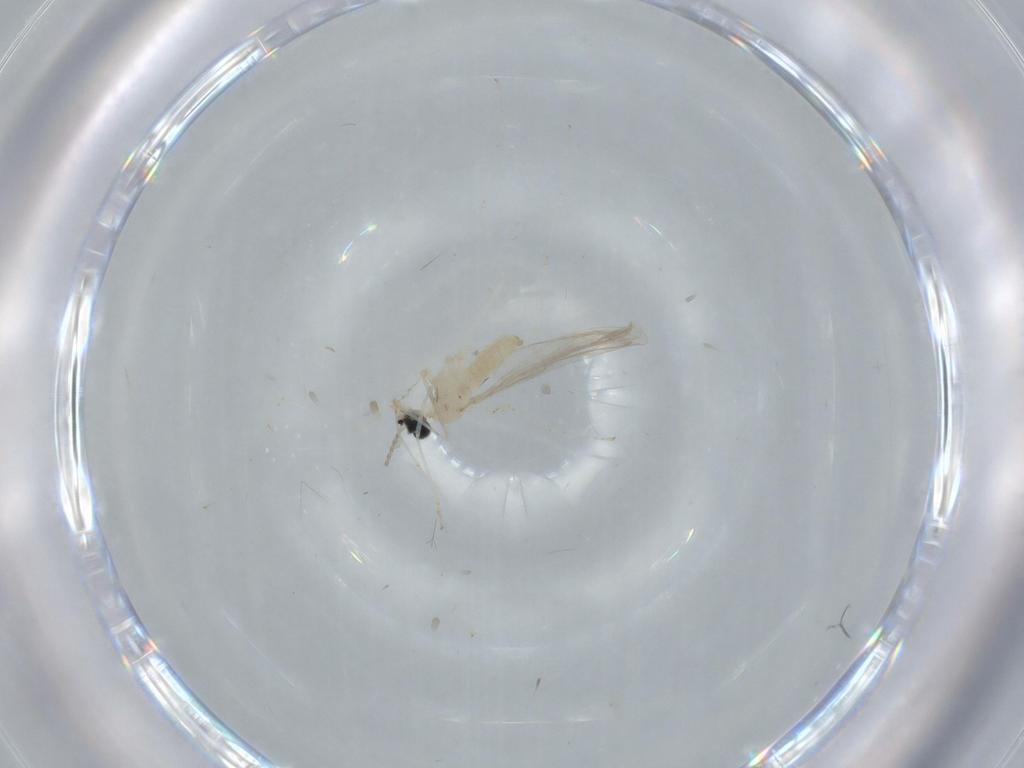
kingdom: Animalia
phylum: Arthropoda
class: Insecta
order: Diptera
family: Cecidomyiidae
